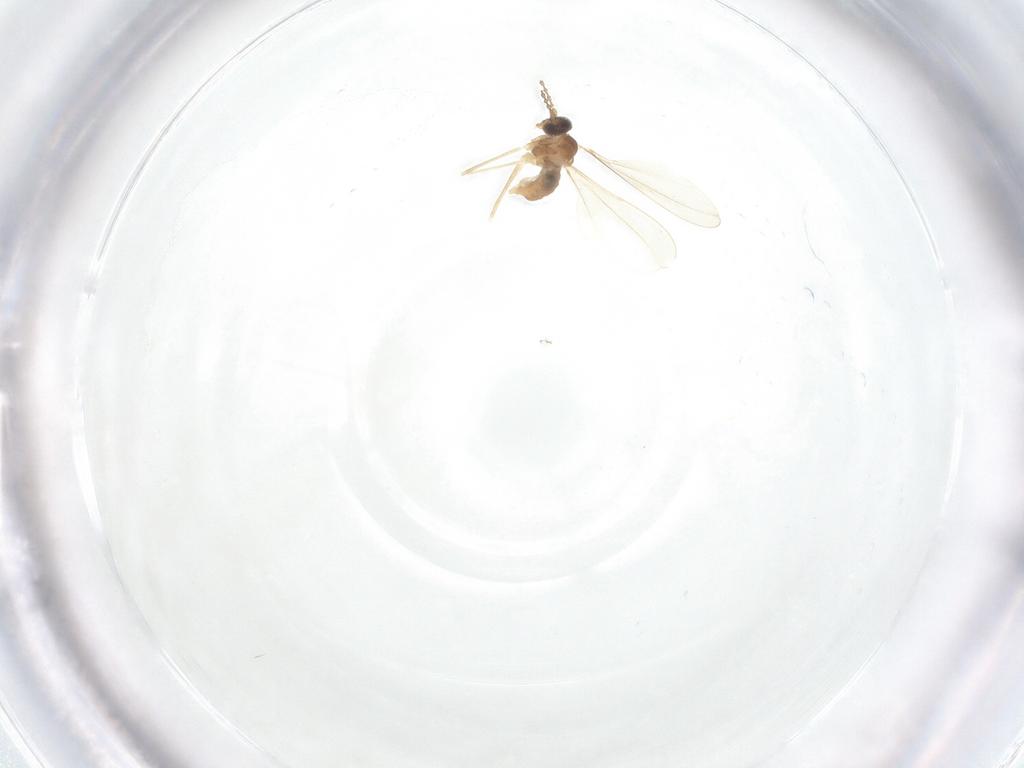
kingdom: Animalia
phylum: Arthropoda
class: Insecta
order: Diptera
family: Cecidomyiidae
